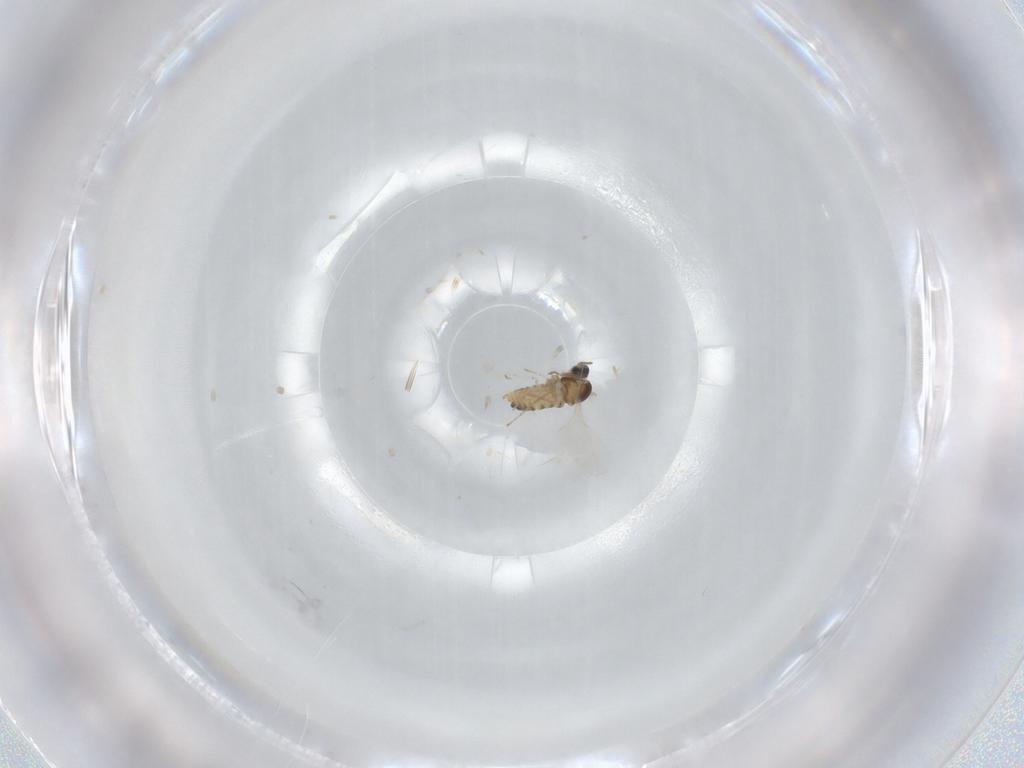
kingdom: Animalia
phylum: Arthropoda
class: Insecta
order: Diptera
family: Cecidomyiidae
